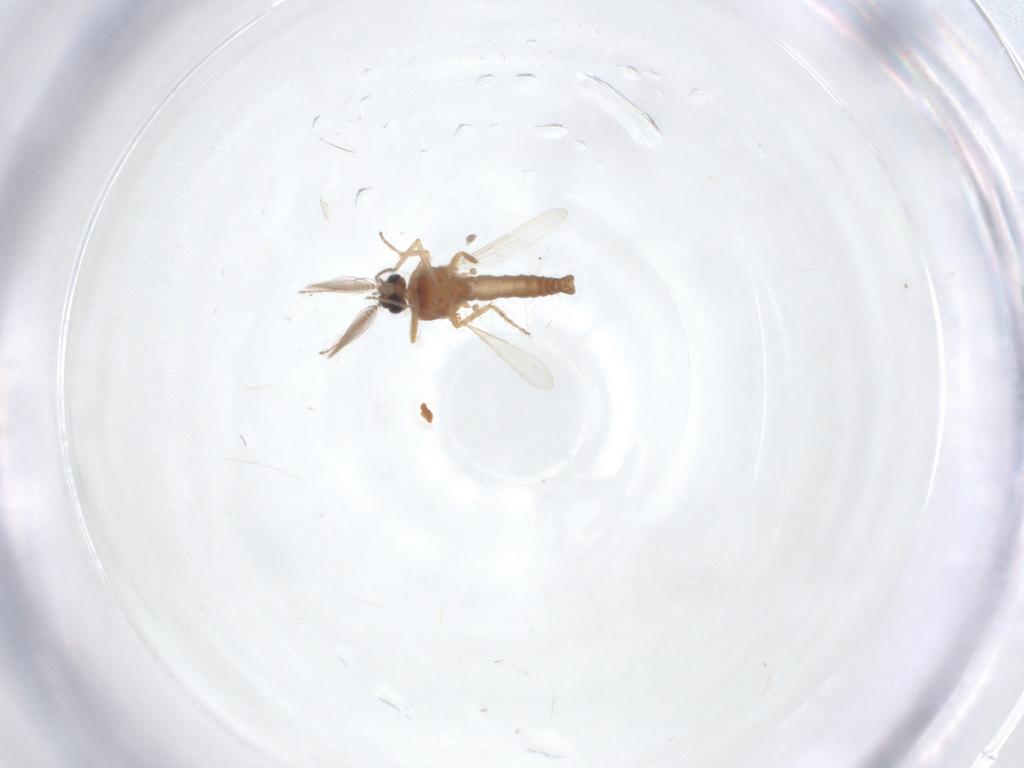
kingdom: Animalia
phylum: Arthropoda
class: Insecta
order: Diptera
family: Ceratopogonidae
